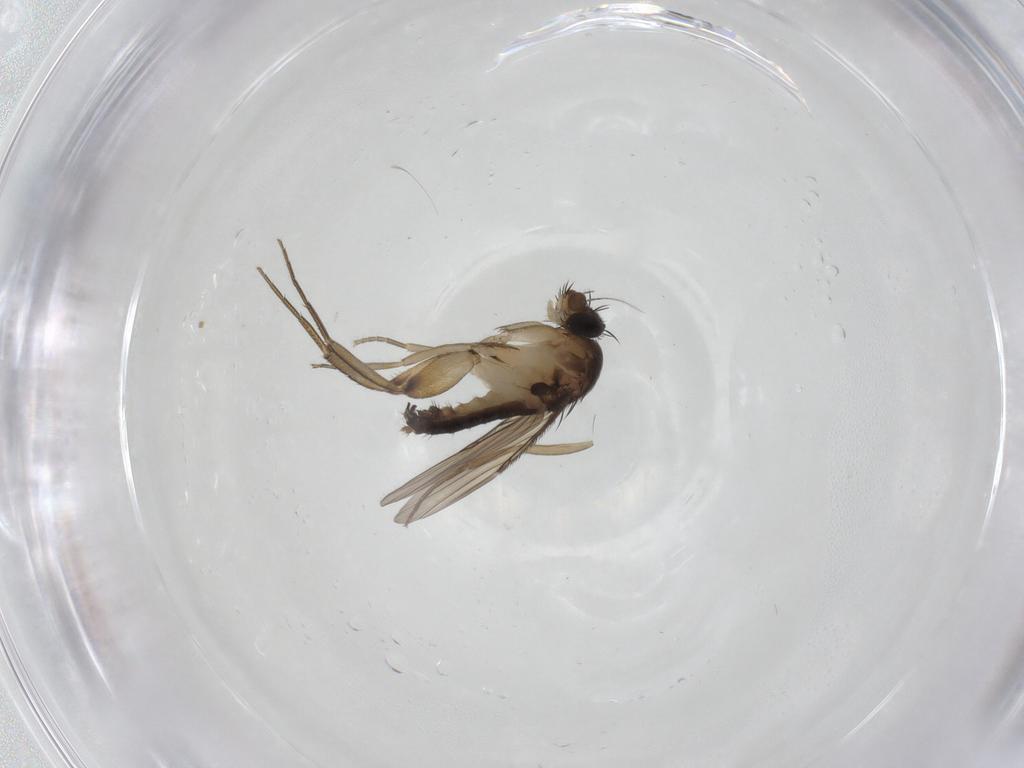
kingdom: Animalia
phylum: Arthropoda
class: Insecta
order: Diptera
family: Phoridae
